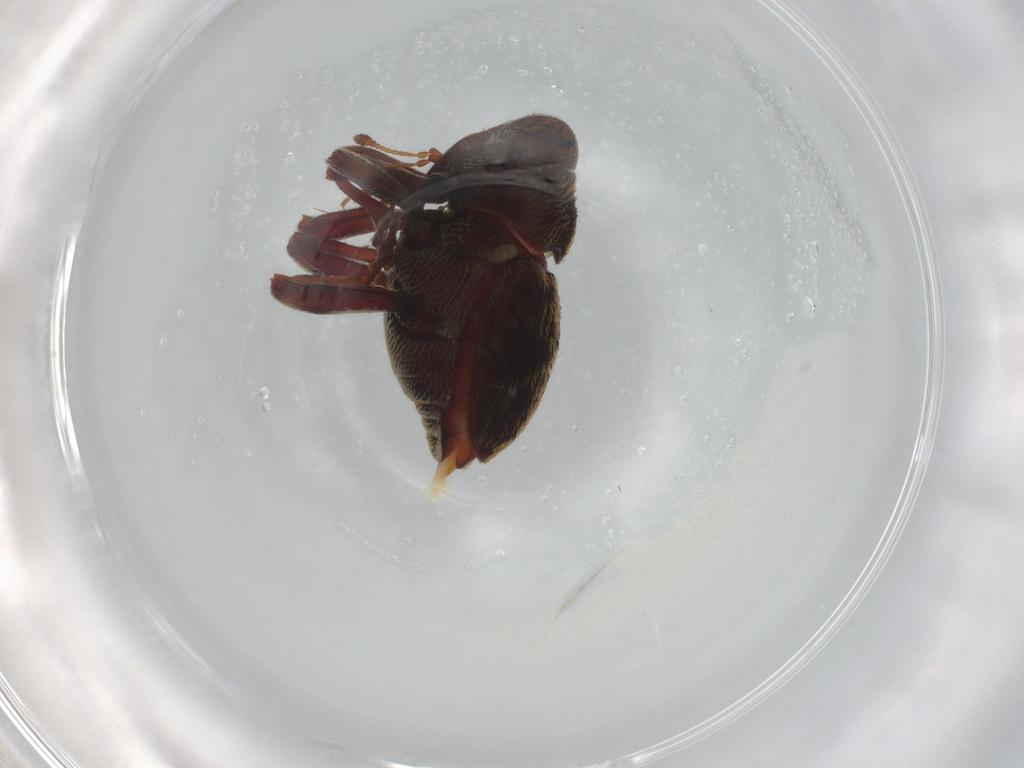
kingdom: Animalia
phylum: Arthropoda
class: Insecta
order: Coleoptera
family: Curculionidae
